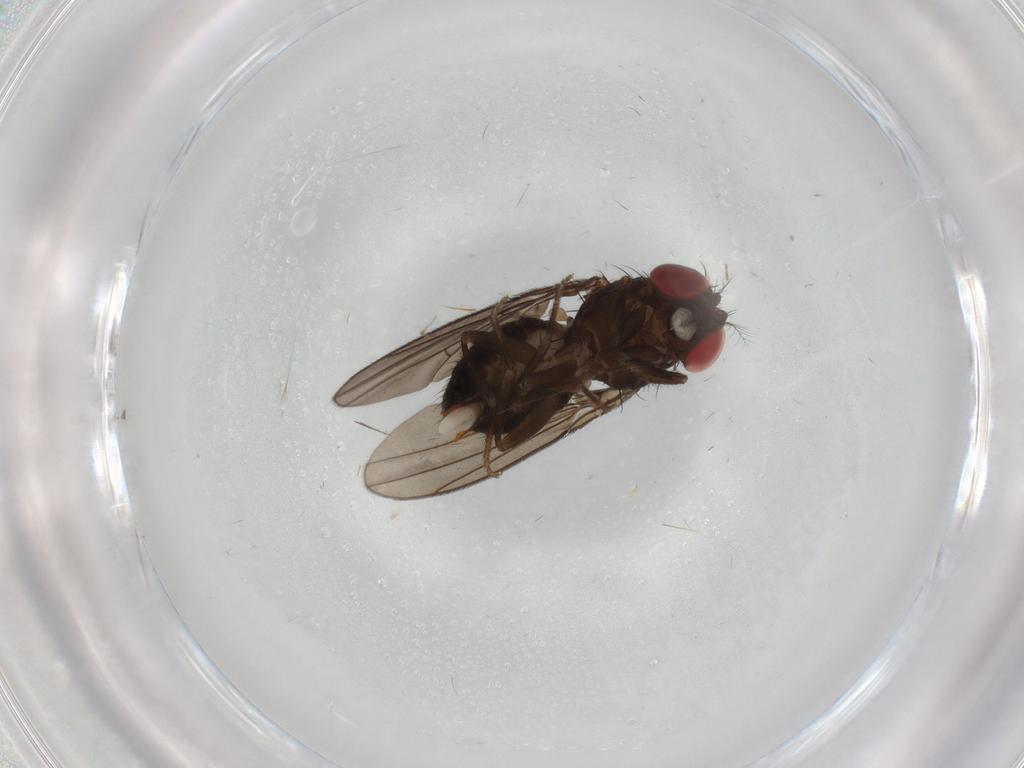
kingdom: Animalia
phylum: Arthropoda
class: Insecta
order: Diptera
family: Drosophilidae
